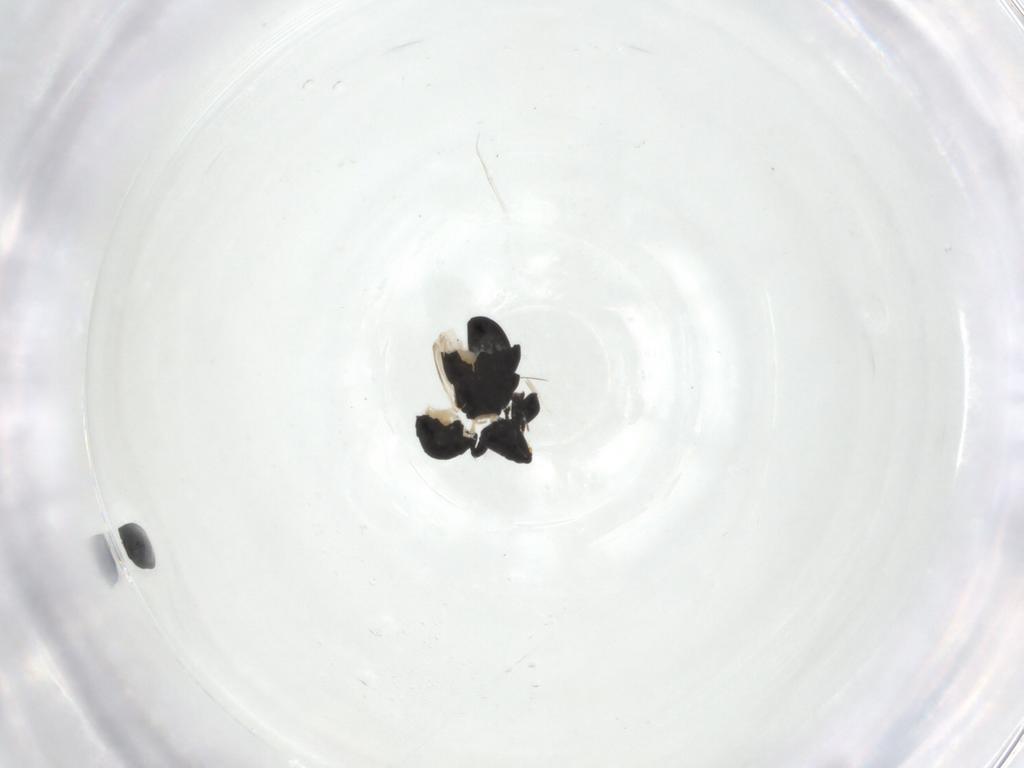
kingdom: Animalia
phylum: Arthropoda
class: Insecta
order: Coleoptera
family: Curculionidae
